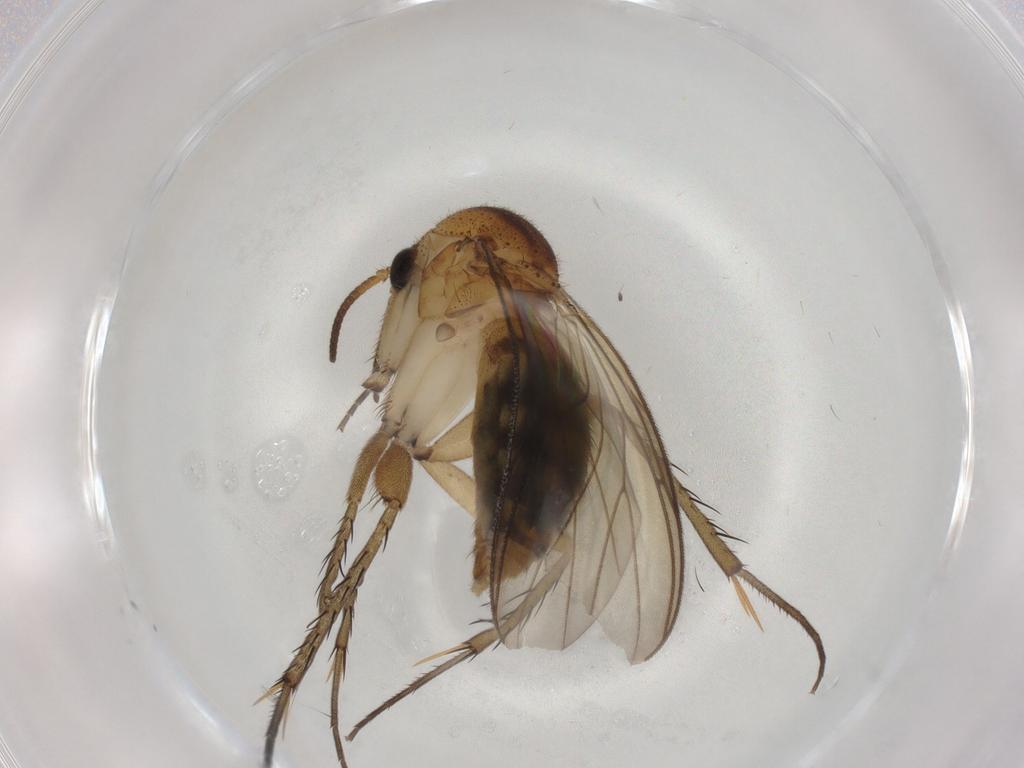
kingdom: Animalia
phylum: Arthropoda
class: Insecta
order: Diptera
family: Mycetophilidae
